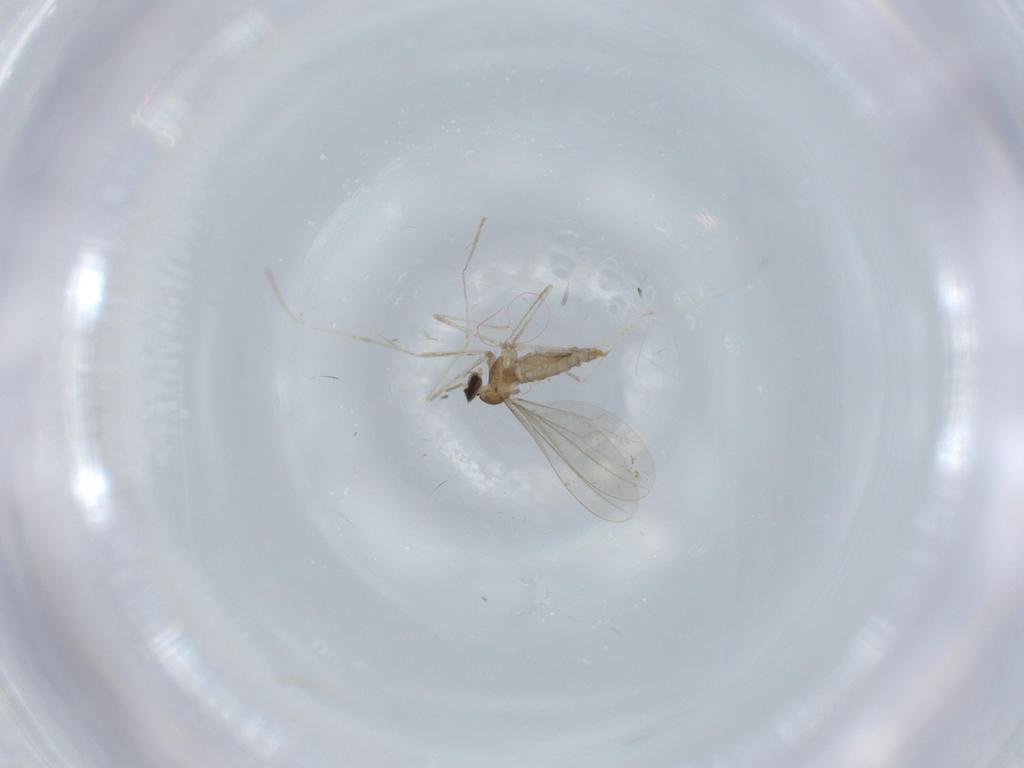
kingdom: Animalia
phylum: Arthropoda
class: Insecta
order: Diptera
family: Cecidomyiidae
